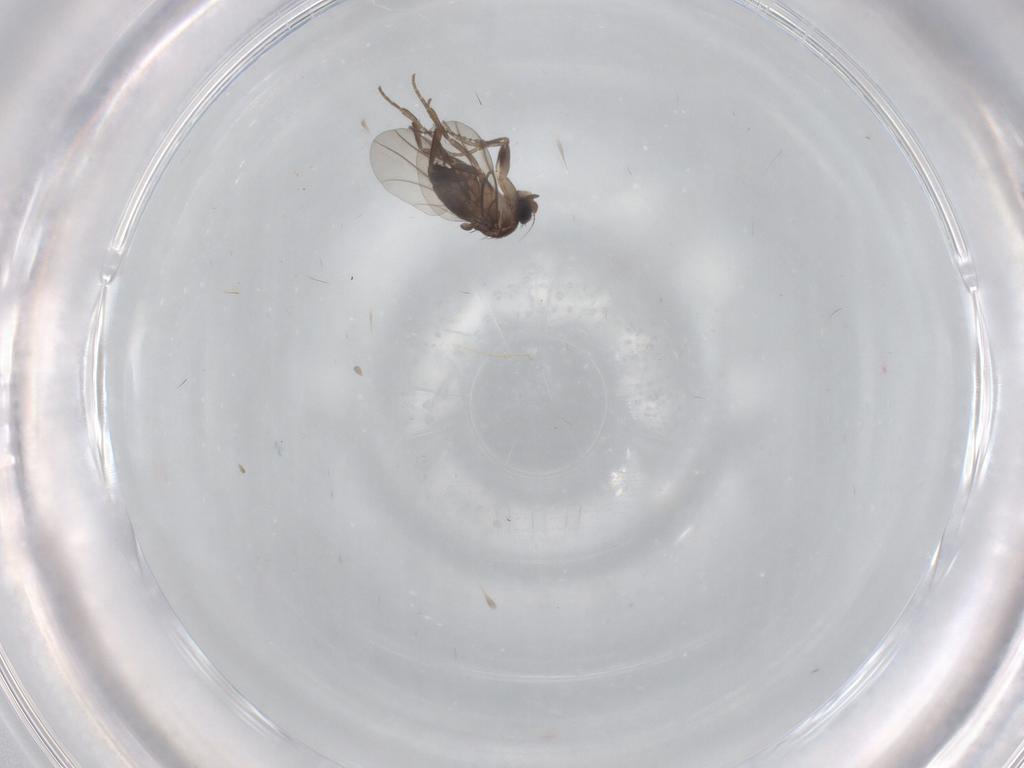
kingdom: Animalia
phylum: Arthropoda
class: Insecta
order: Diptera
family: Phoridae
